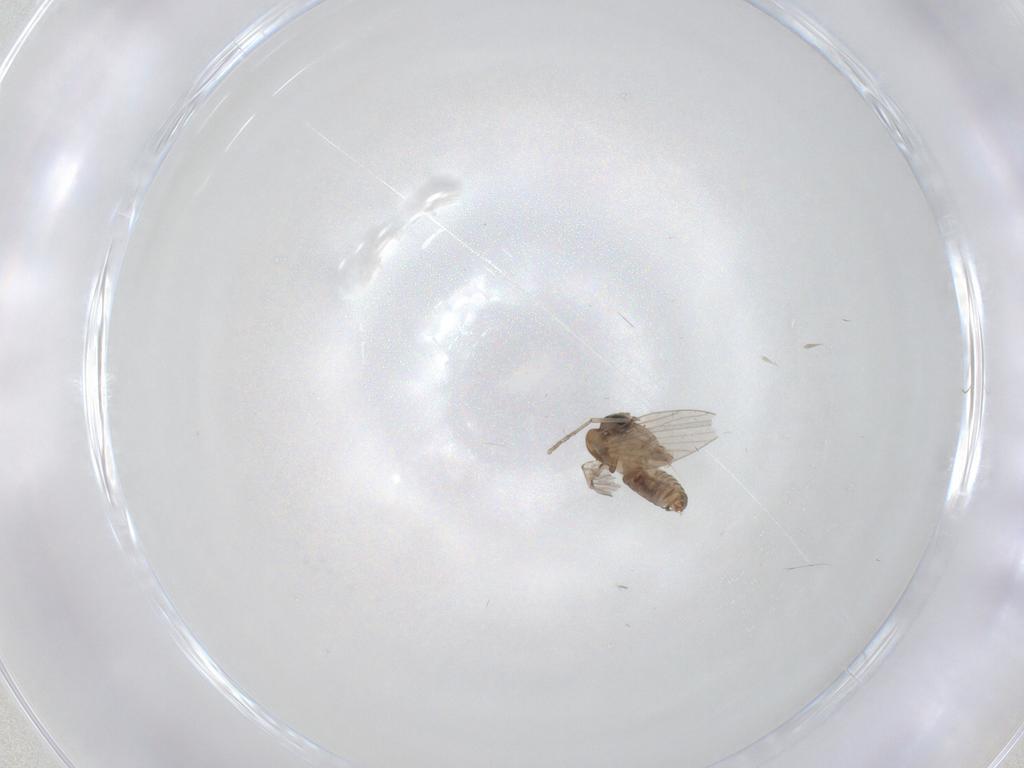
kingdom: Animalia
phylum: Arthropoda
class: Insecta
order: Diptera
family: Cecidomyiidae
